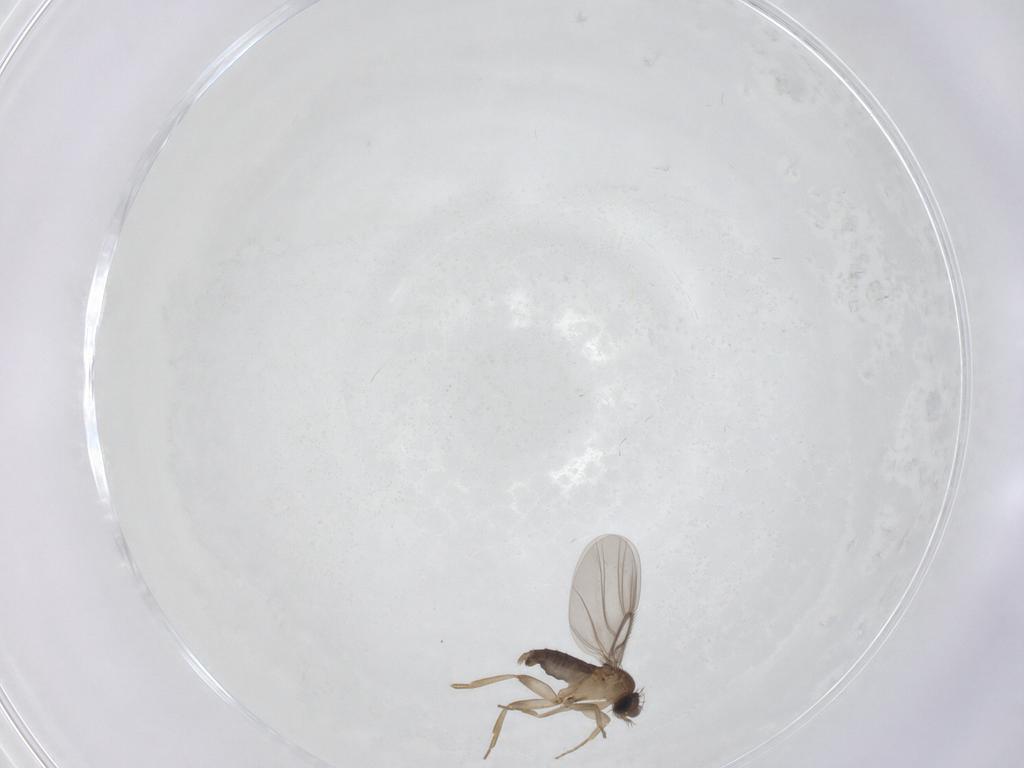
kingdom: Animalia
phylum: Arthropoda
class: Insecta
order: Diptera
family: Phoridae
